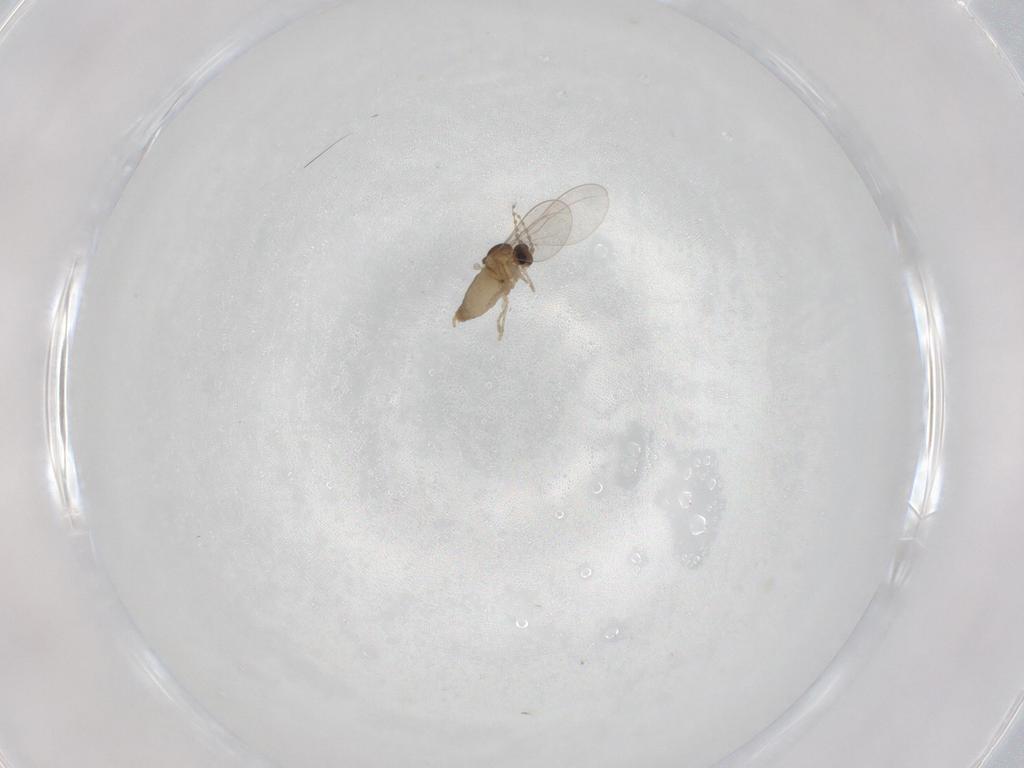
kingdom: Animalia
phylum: Arthropoda
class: Insecta
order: Diptera
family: Cecidomyiidae
